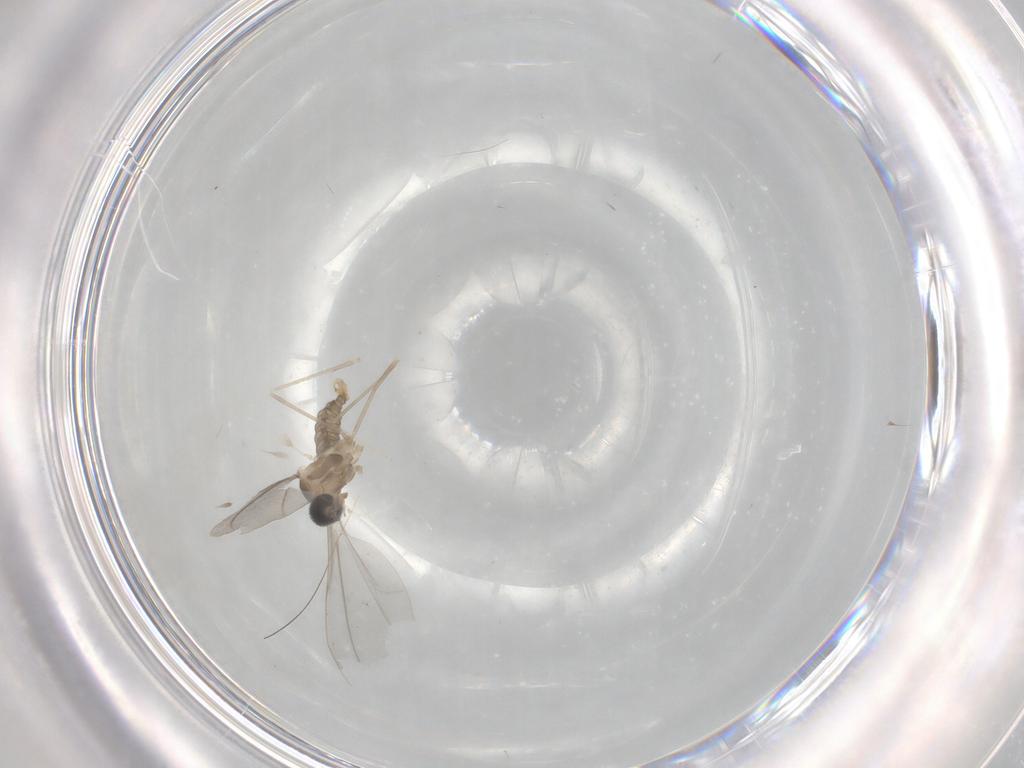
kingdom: Animalia
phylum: Arthropoda
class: Insecta
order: Diptera
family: Cecidomyiidae
